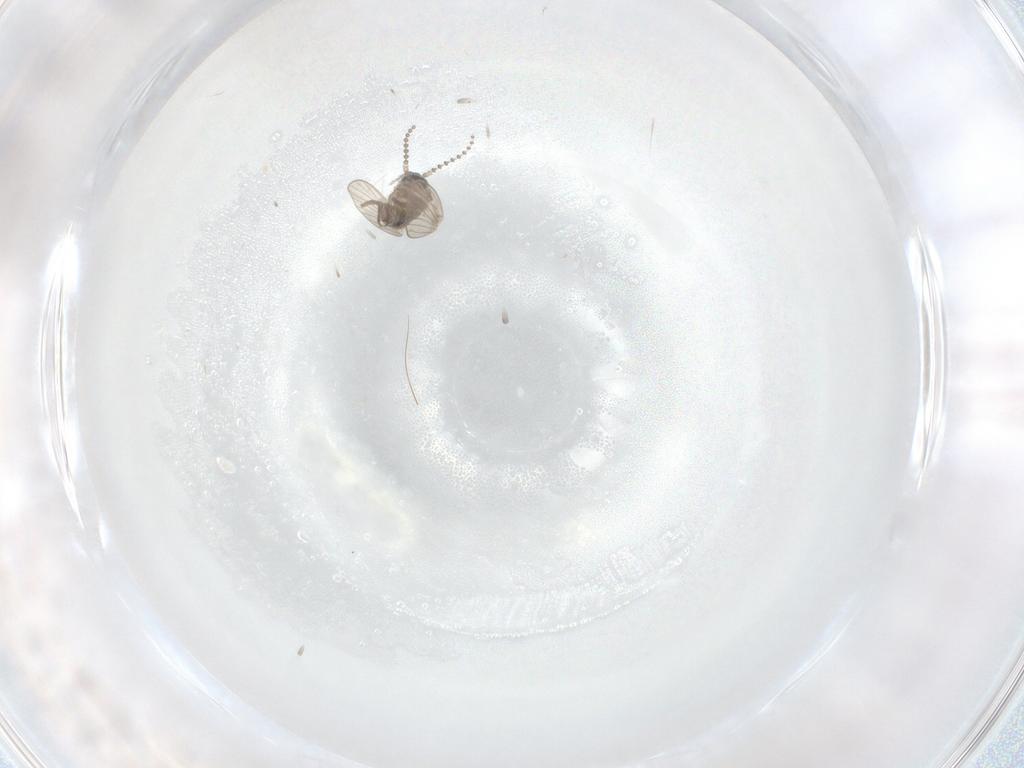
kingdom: Animalia
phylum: Arthropoda
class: Insecta
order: Diptera
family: Psychodidae
